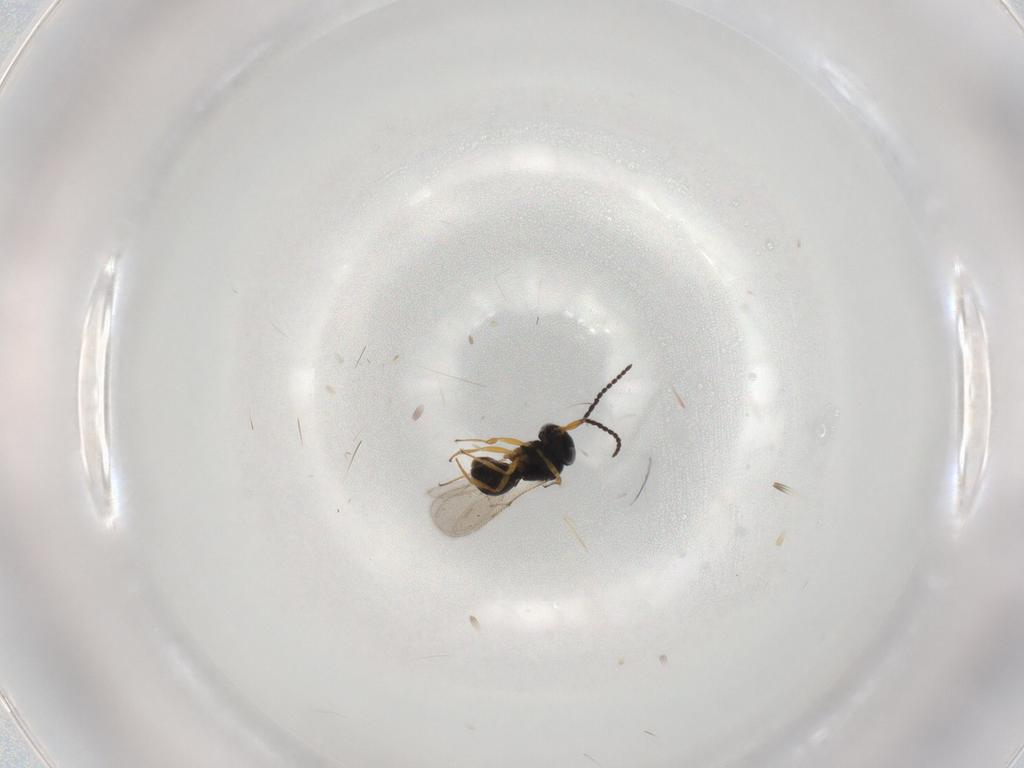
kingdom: Animalia
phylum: Arthropoda
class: Insecta
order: Hymenoptera
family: Scelionidae
